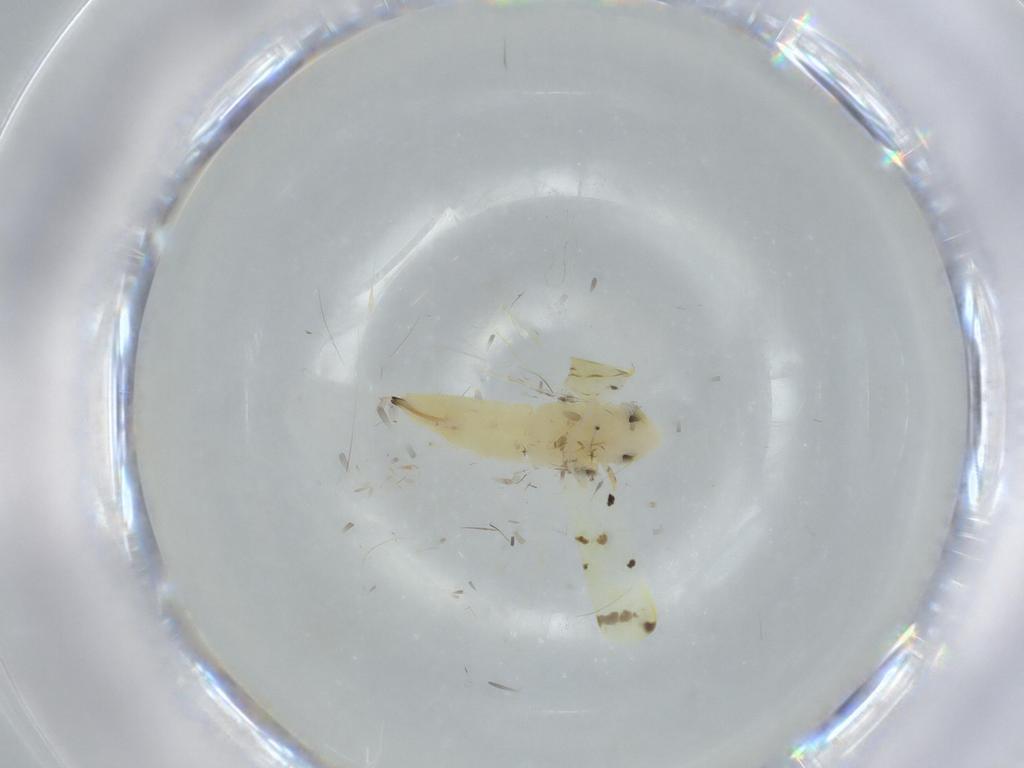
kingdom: Animalia
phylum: Arthropoda
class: Insecta
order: Hemiptera
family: Cicadellidae
